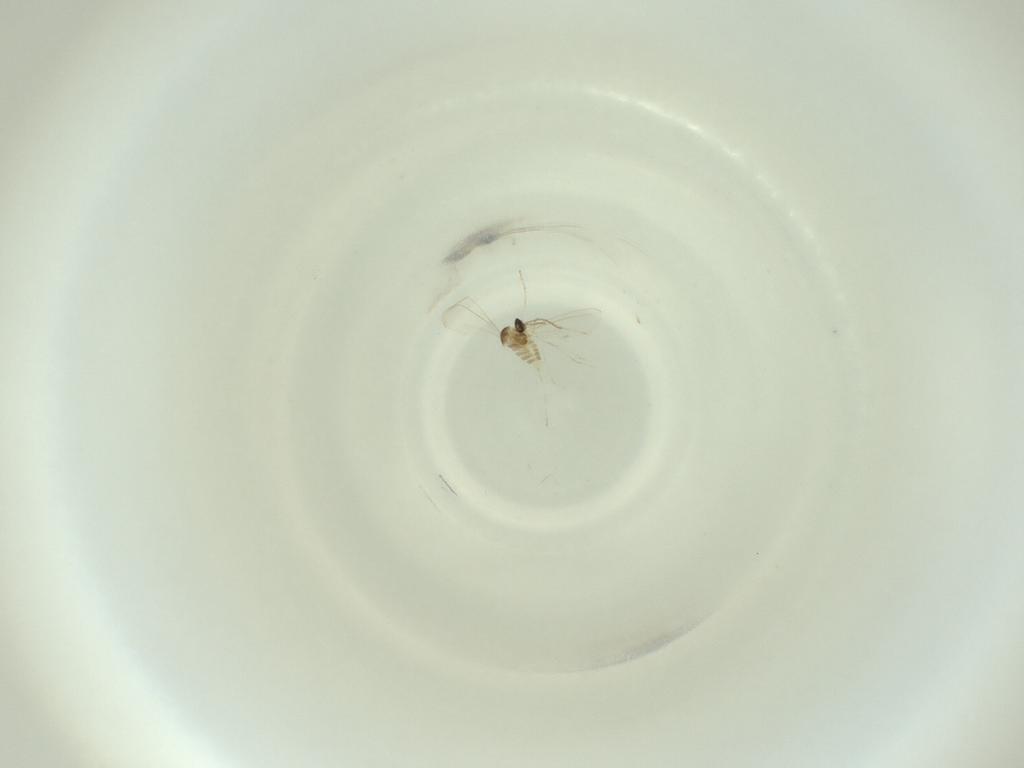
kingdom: Animalia
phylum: Arthropoda
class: Insecta
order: Diptera
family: Cecidomyiidae
